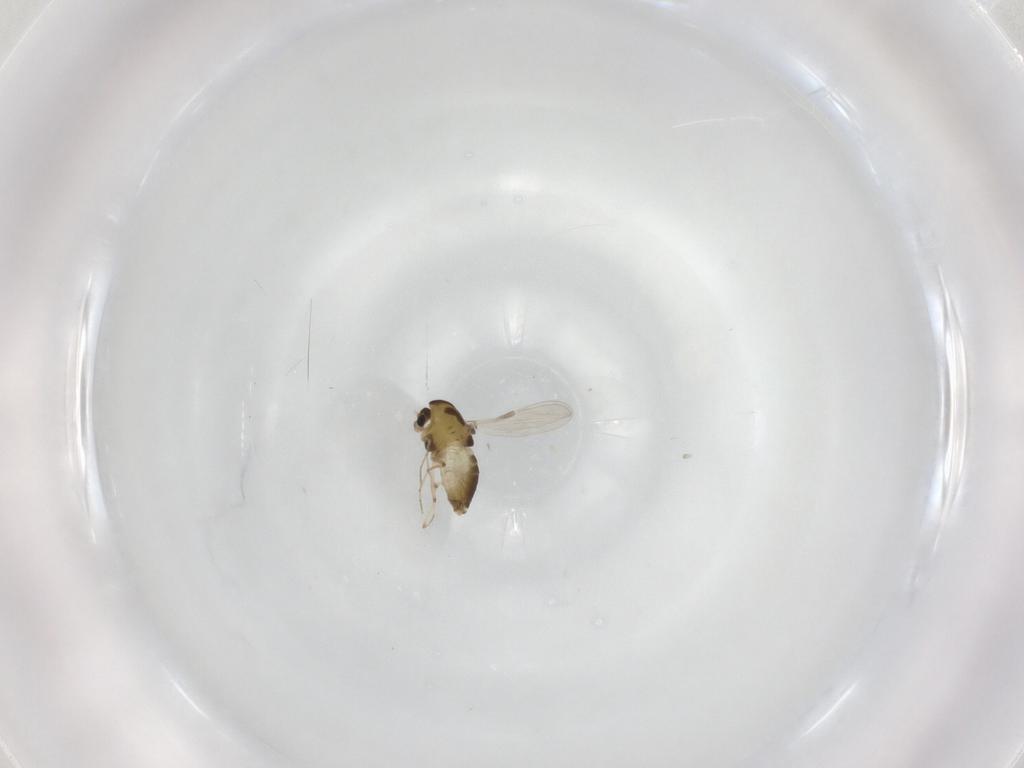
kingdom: Animalia
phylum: Arthropoda
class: Insecta
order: Diptera
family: Chironomidae
